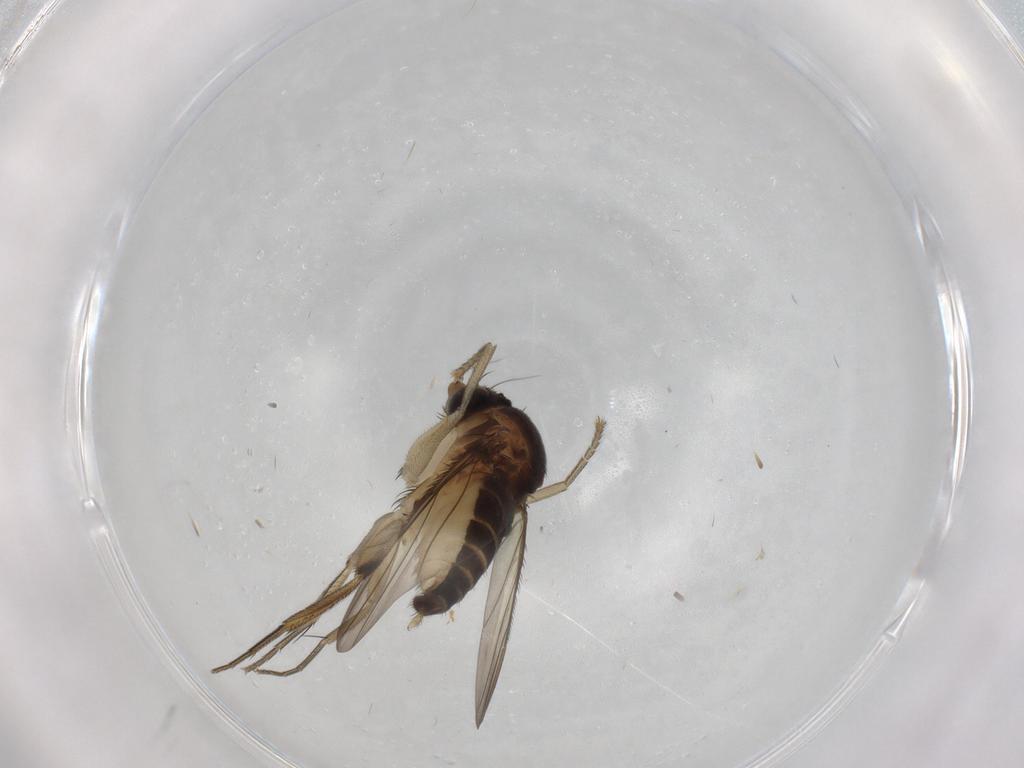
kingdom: Animalia
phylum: Arthropoda
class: Insecta
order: Diptera
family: Phoridae
